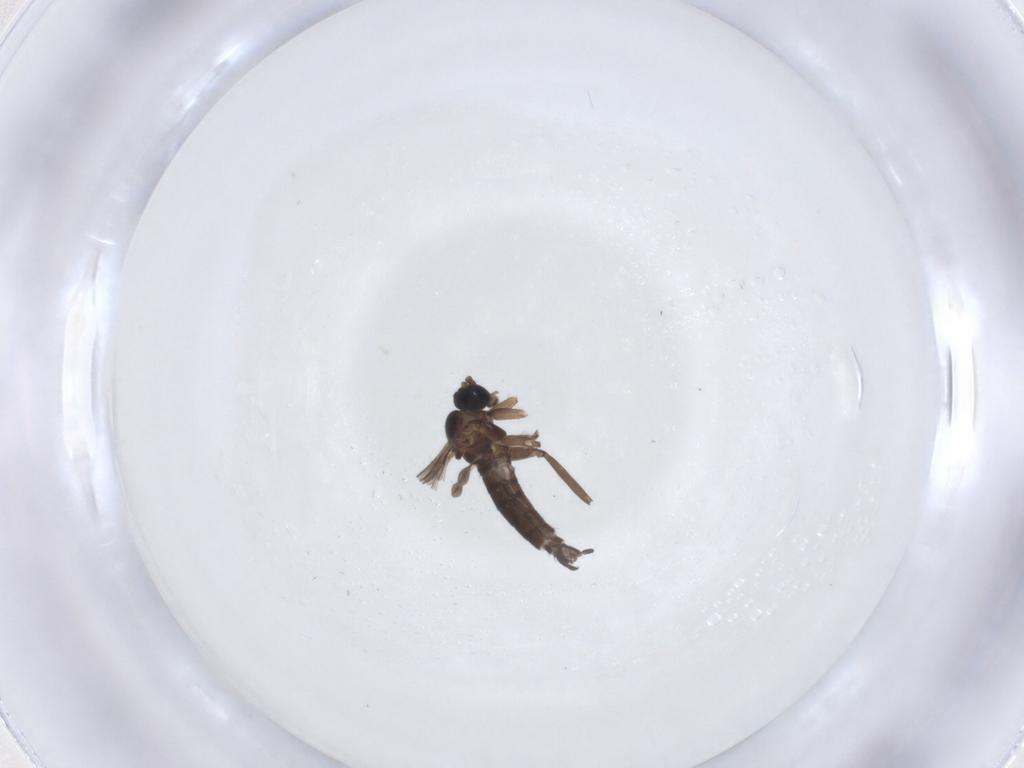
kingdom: Animalia
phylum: Arthropoda
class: Insecta
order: Diptera
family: Sciaridae
